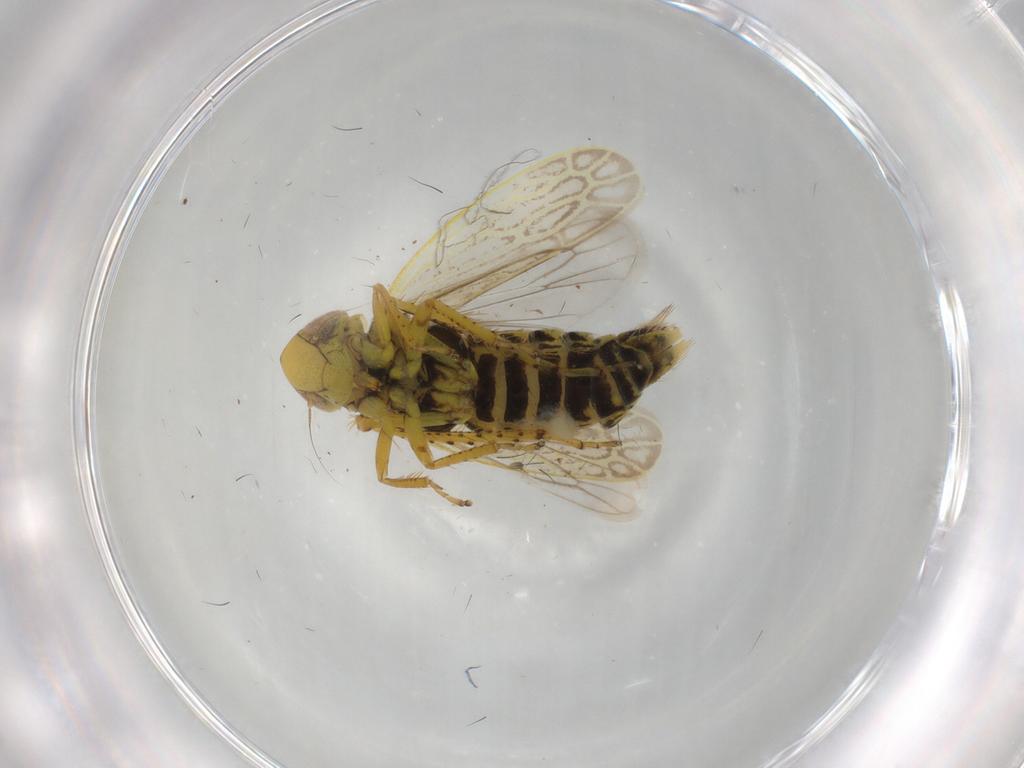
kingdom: Animalia
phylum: Arthropoda
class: Insecta
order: Hemiptera
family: Cicadellidae
